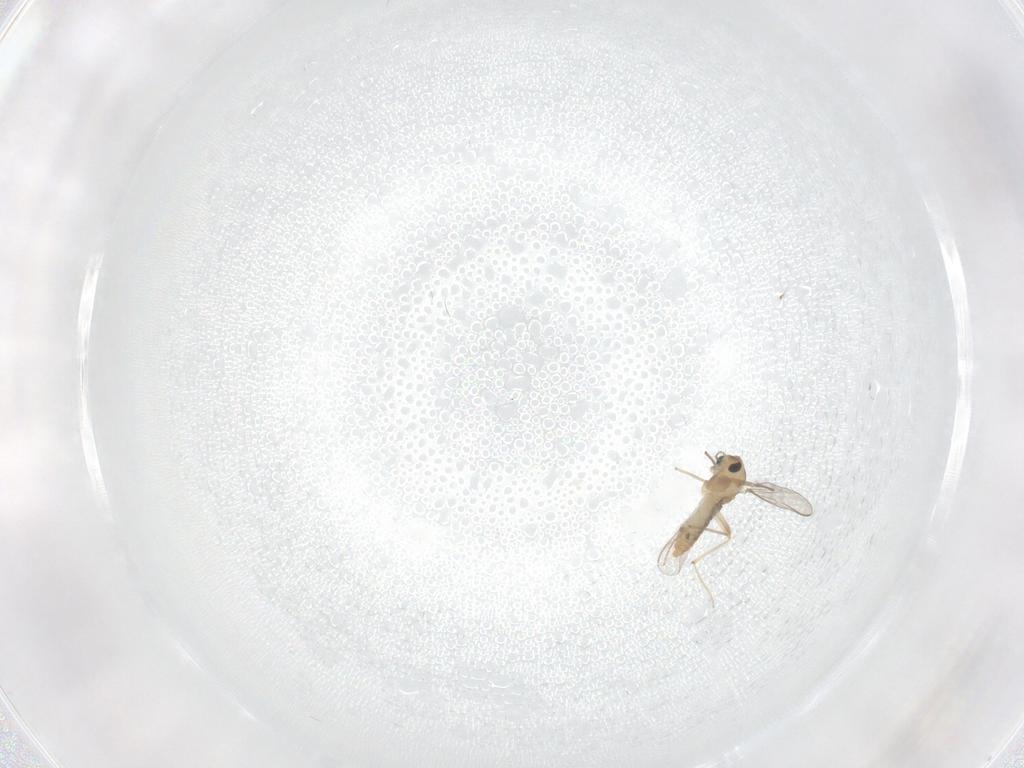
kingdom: Animalia
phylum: Arthropoda
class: Insecta
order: Diptera
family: Chironomidae
